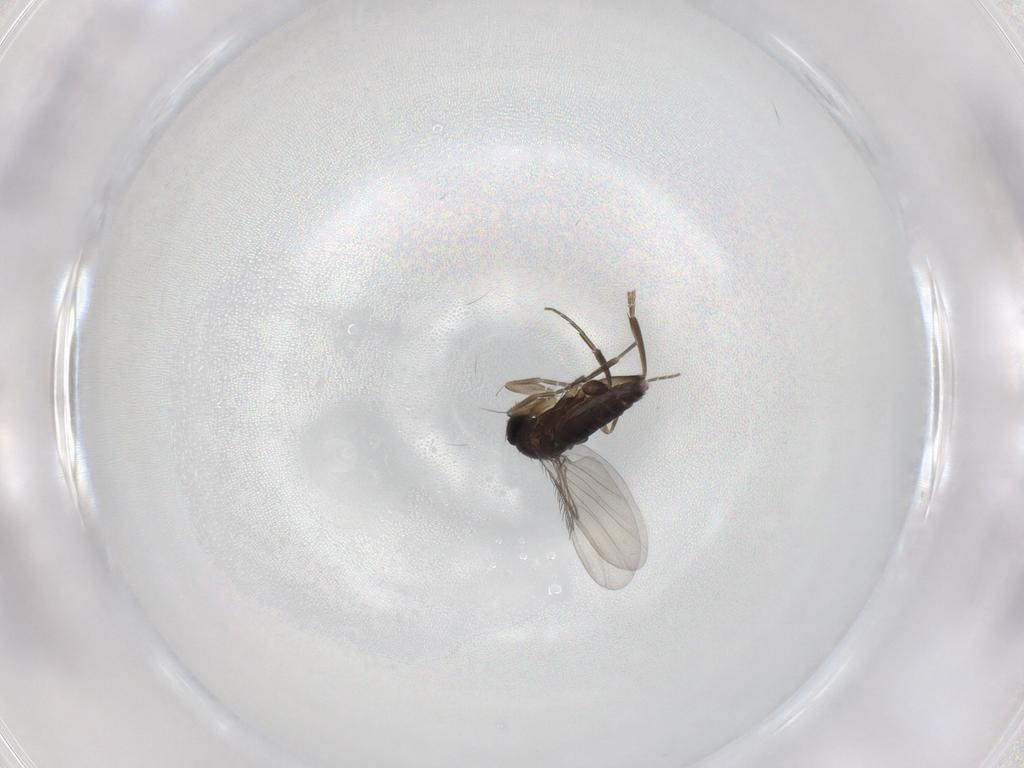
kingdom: Animalia
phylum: Arthropoda
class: Insecta
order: Diptera
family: Phoridae
